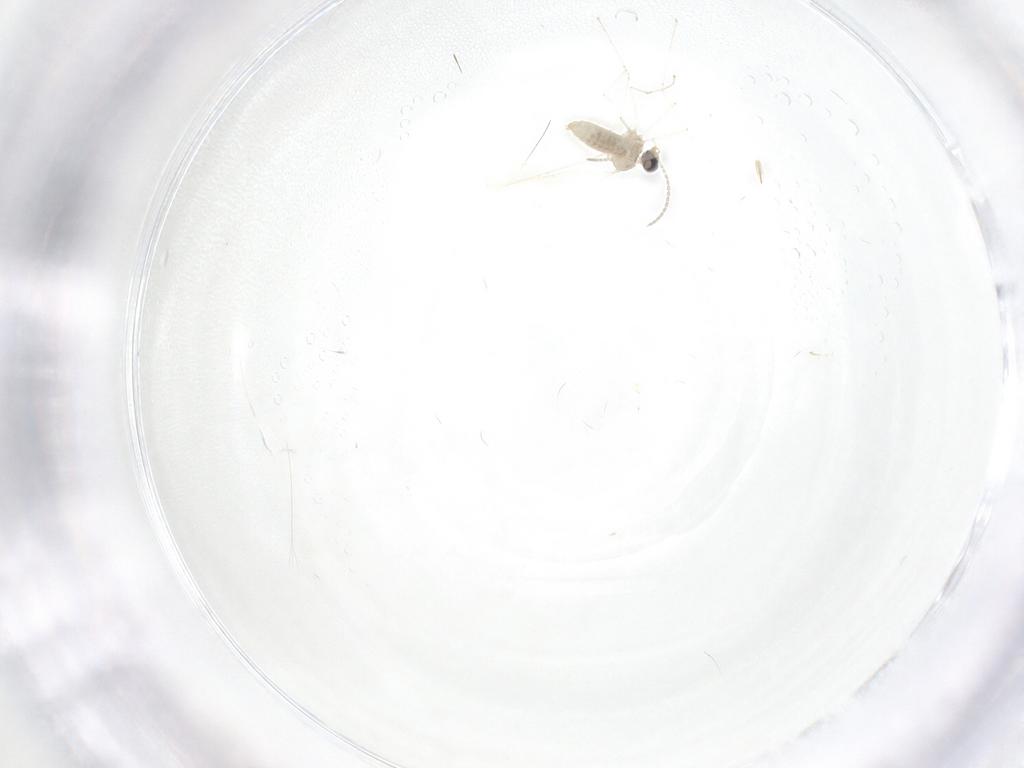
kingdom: Animalia
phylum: Arthropoda
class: Insecta
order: Diptera
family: Cecidomyiidae
